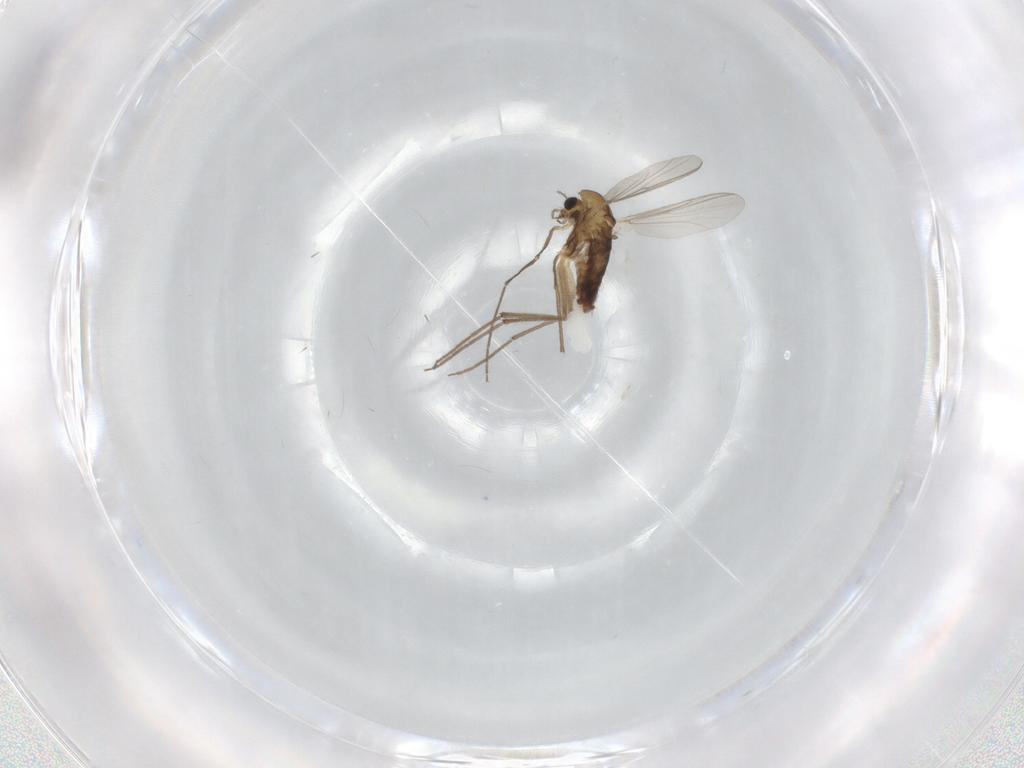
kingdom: Animalia
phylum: Arthropoda
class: Insecta
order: Diptera
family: Chironomidae
